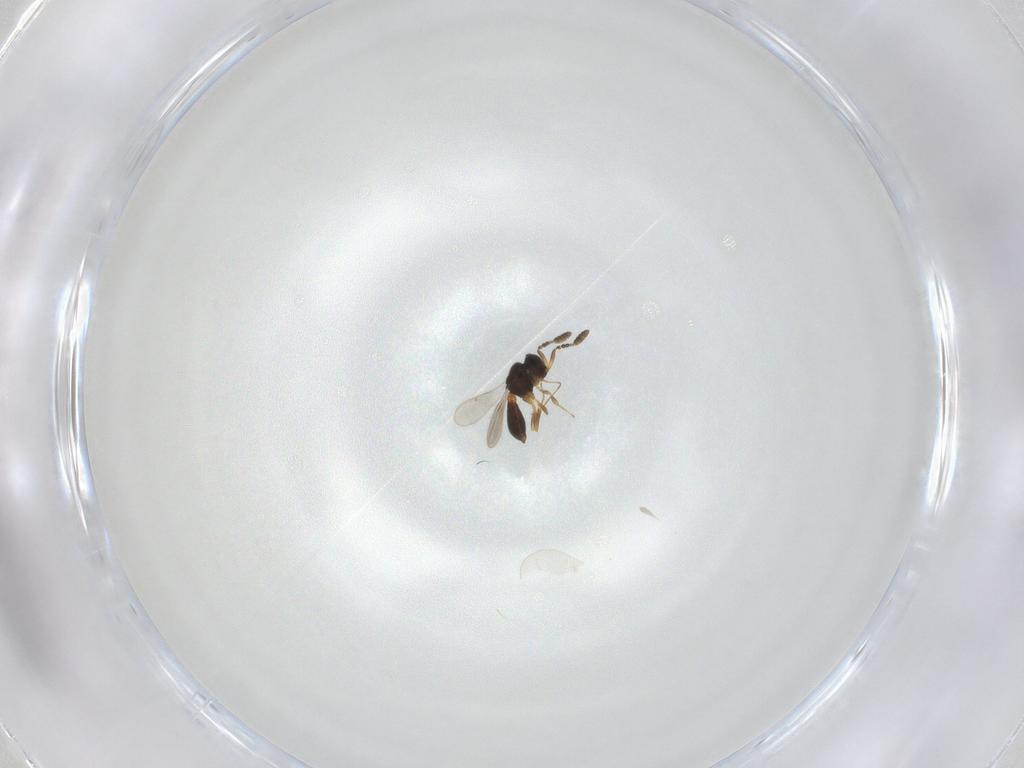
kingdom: Animalia
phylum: Arthropoda
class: Insecta
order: Hymenoptera
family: Scelionidae
